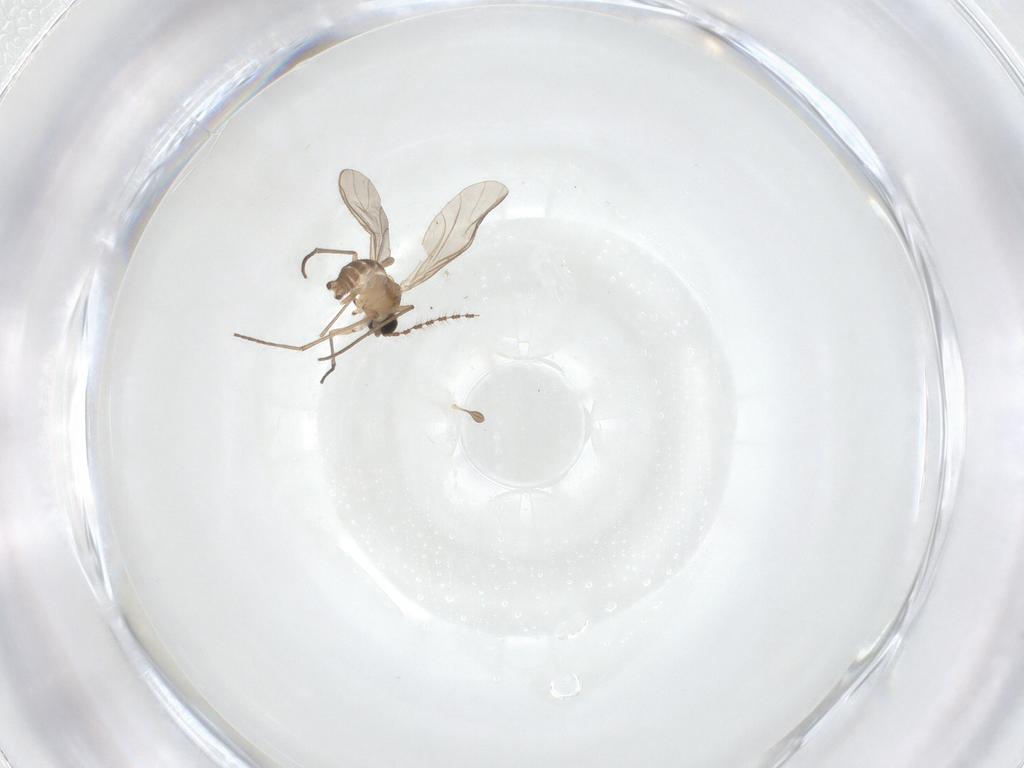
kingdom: Animalia
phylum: Arthropoda
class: Insecta
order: Diptera
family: Sciaridae
